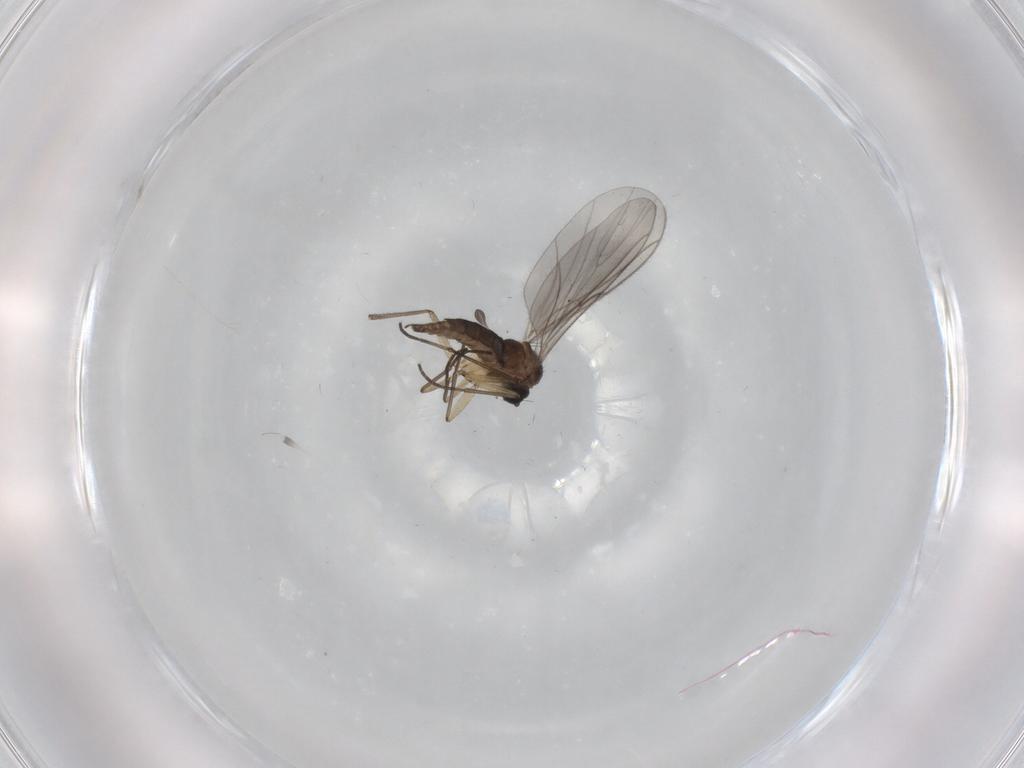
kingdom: Animalia
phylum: Arthropoda
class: Insecta
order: Diptera
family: Sciaridae
